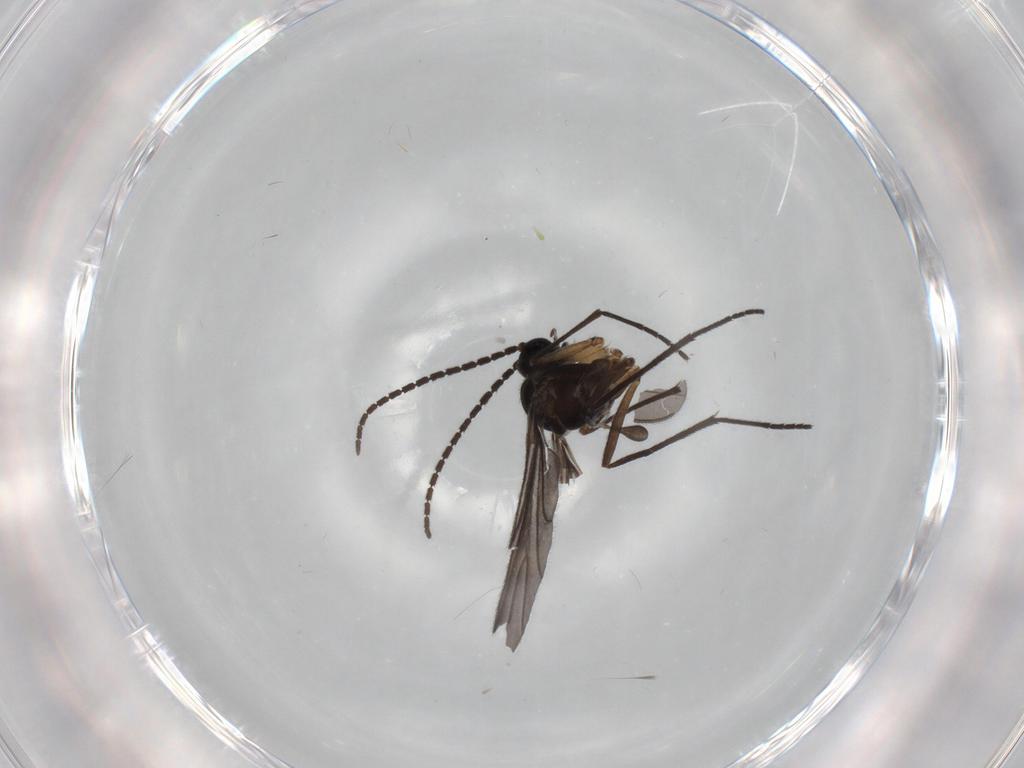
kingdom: Animalia
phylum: Arthropoda
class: Insecta
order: Diptera
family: Sciaridae
